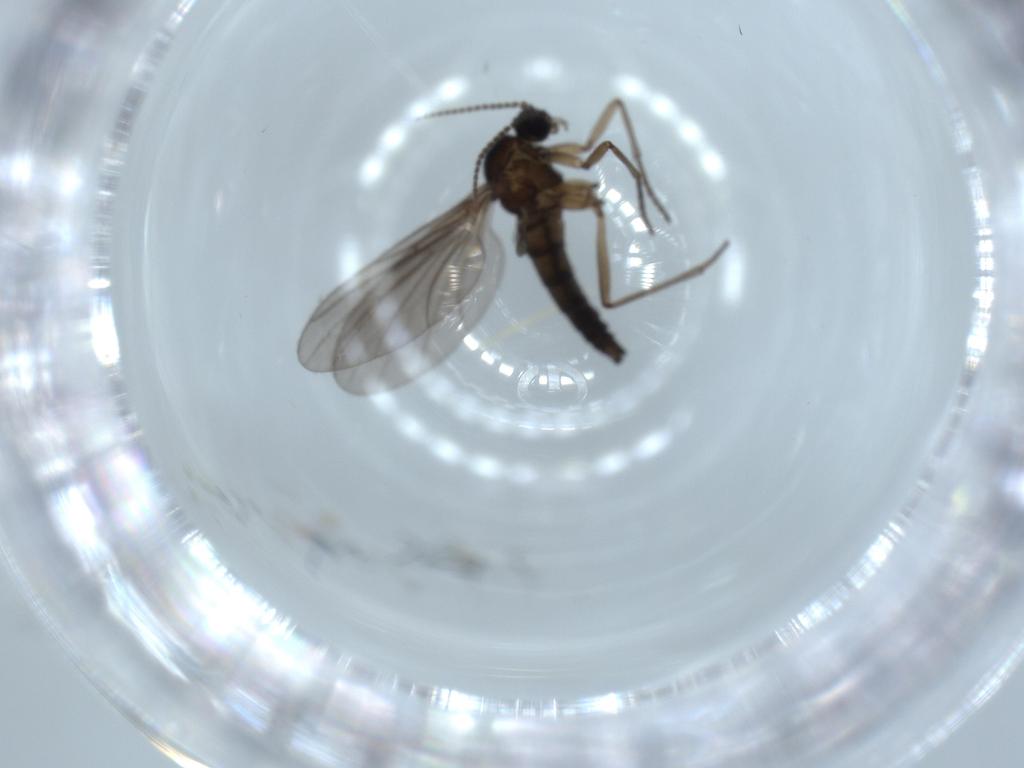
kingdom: Animalia
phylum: Arthropoda
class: Insecta
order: Diptera
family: Sciaridae
